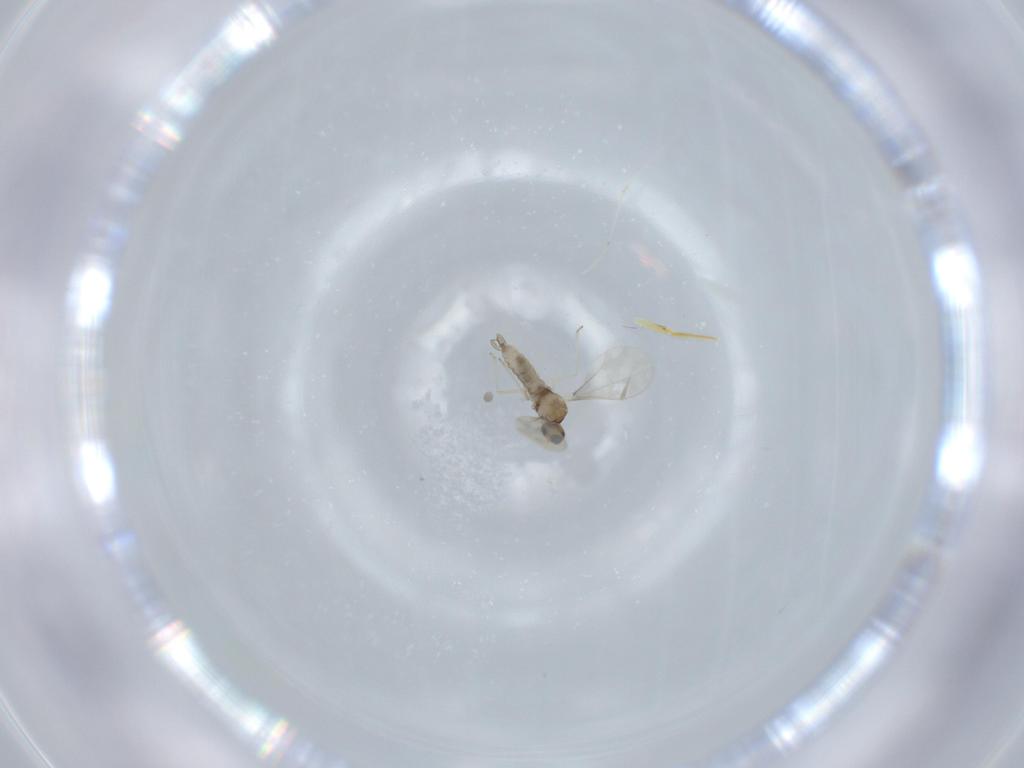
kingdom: Animalia
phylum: Arthropoda
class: Insecta
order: Diptera
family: Cecidomyiidae
